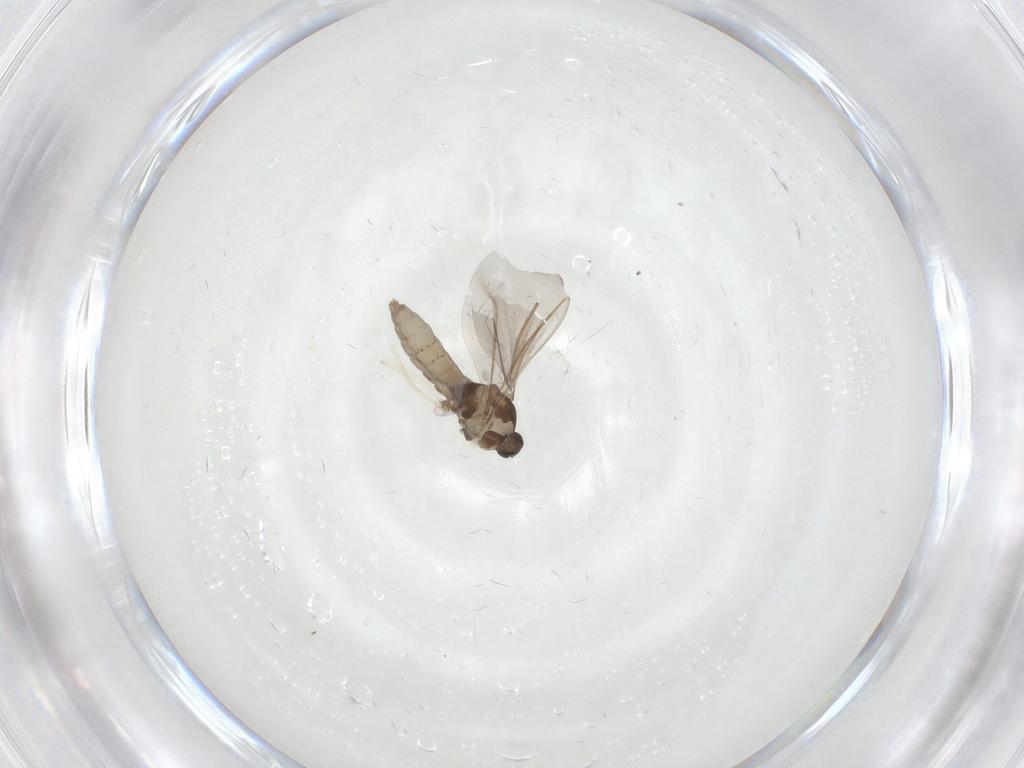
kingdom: Animalia
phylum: Arthropoda
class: Insecta
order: Diptera
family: Cecidomyiidae
